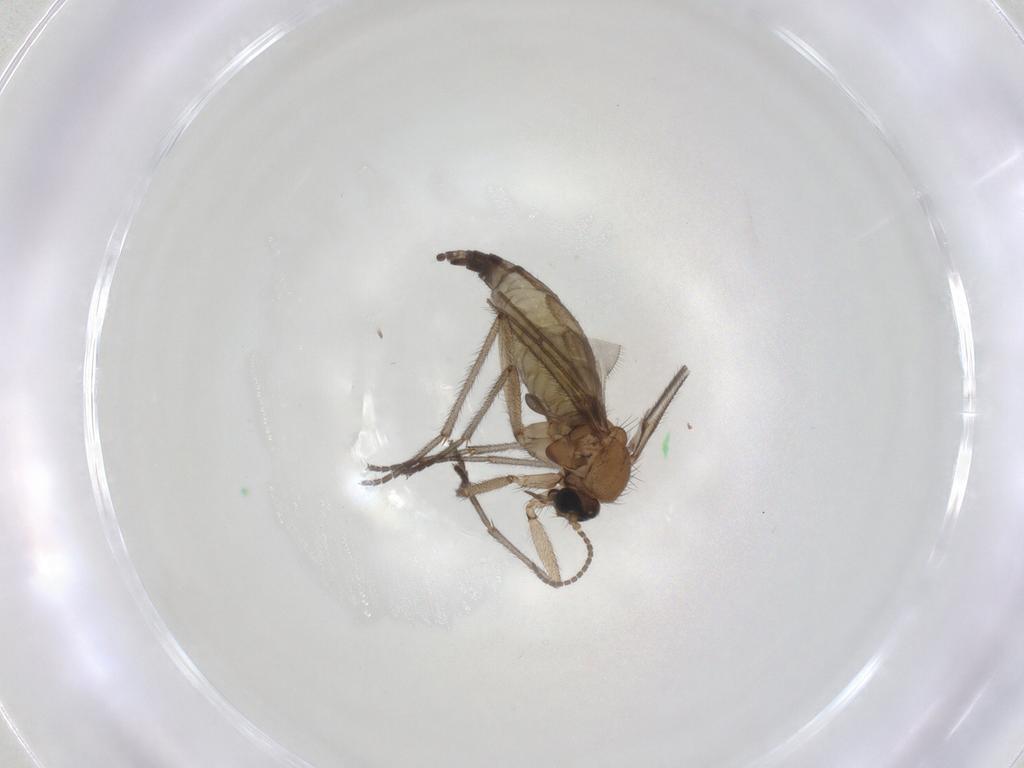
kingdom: Animalia
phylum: Arthropoda
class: Insecta
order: Diptera
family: Sciaridae
